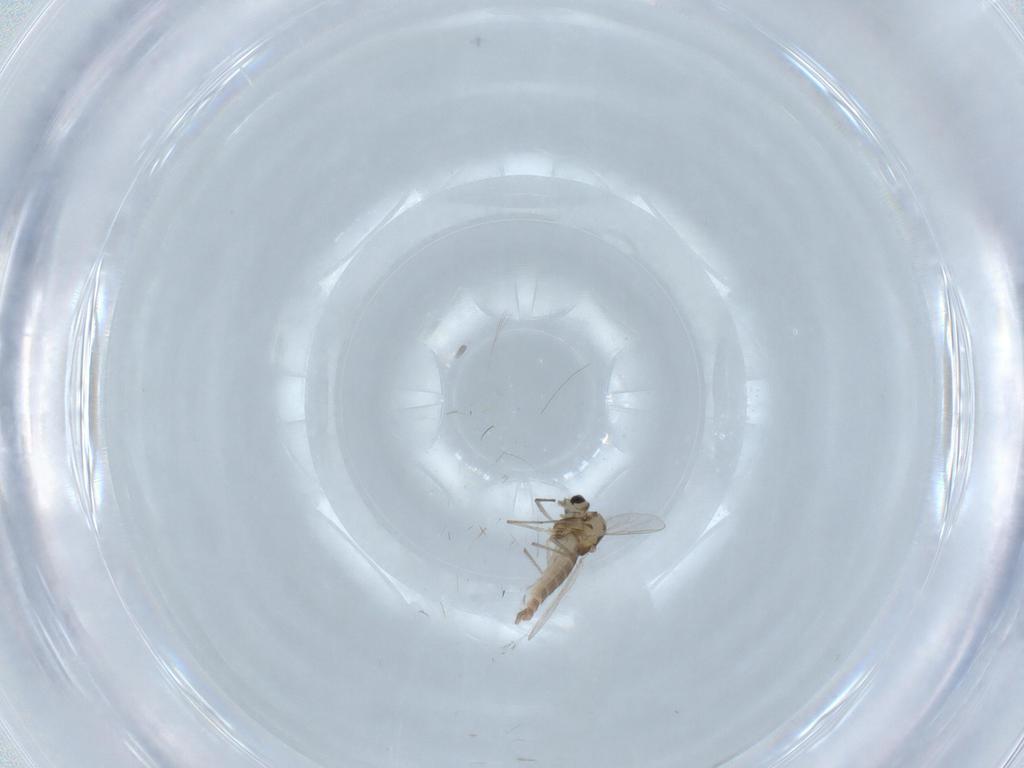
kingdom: Animalia
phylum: Arthropoda
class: Insecta
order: Diptera
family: Chironomidae
